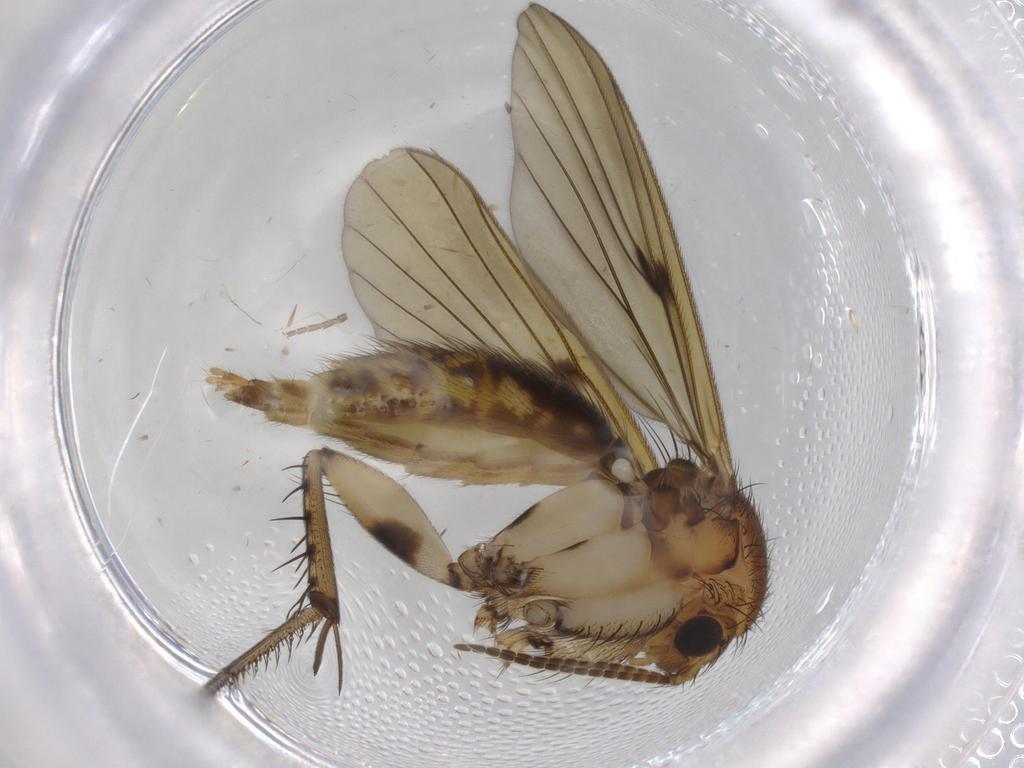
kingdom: Animalia
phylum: Arthropoda
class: Insecta
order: Diptera
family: Cecidomyiidae
